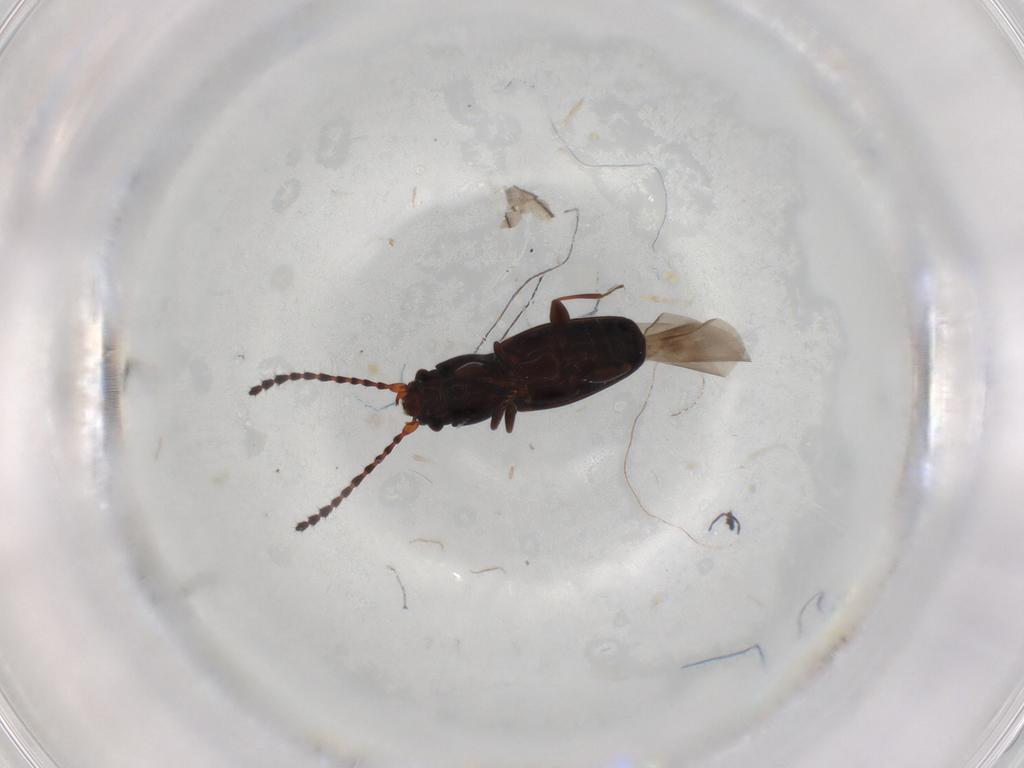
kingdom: Animalia
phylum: Arthropoda
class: Insecta
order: Coleoptera
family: Laemophloeidae
